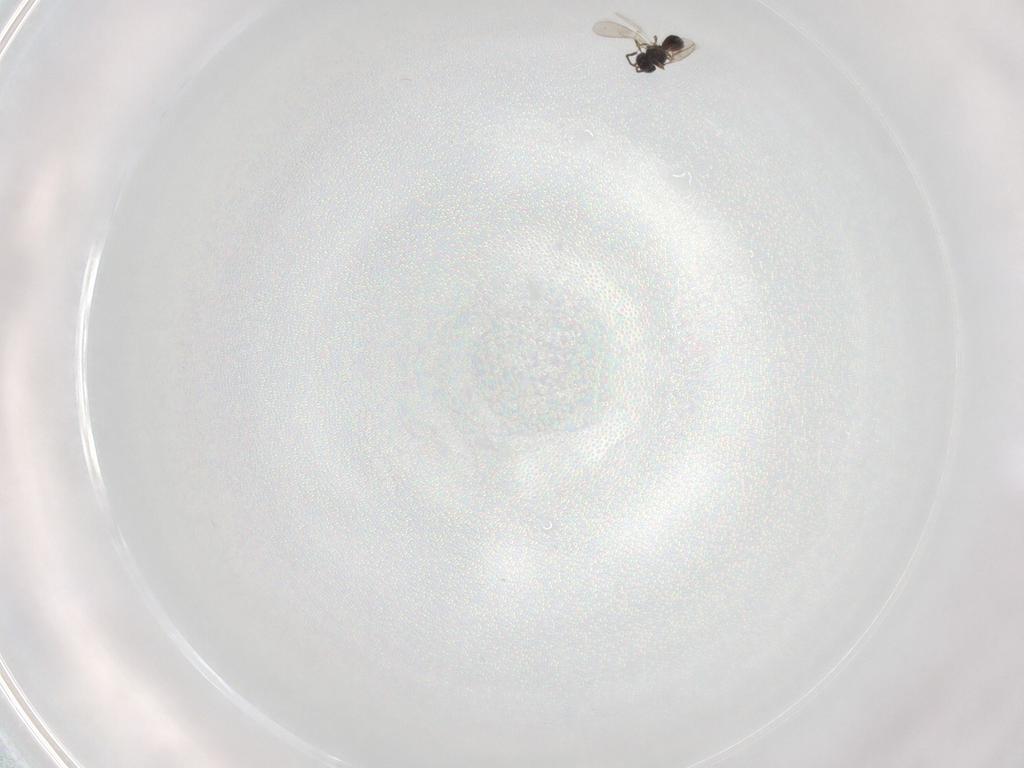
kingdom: Animalia
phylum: Arthropoda
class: Insecta
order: Hymenoptera
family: Scelionidae
